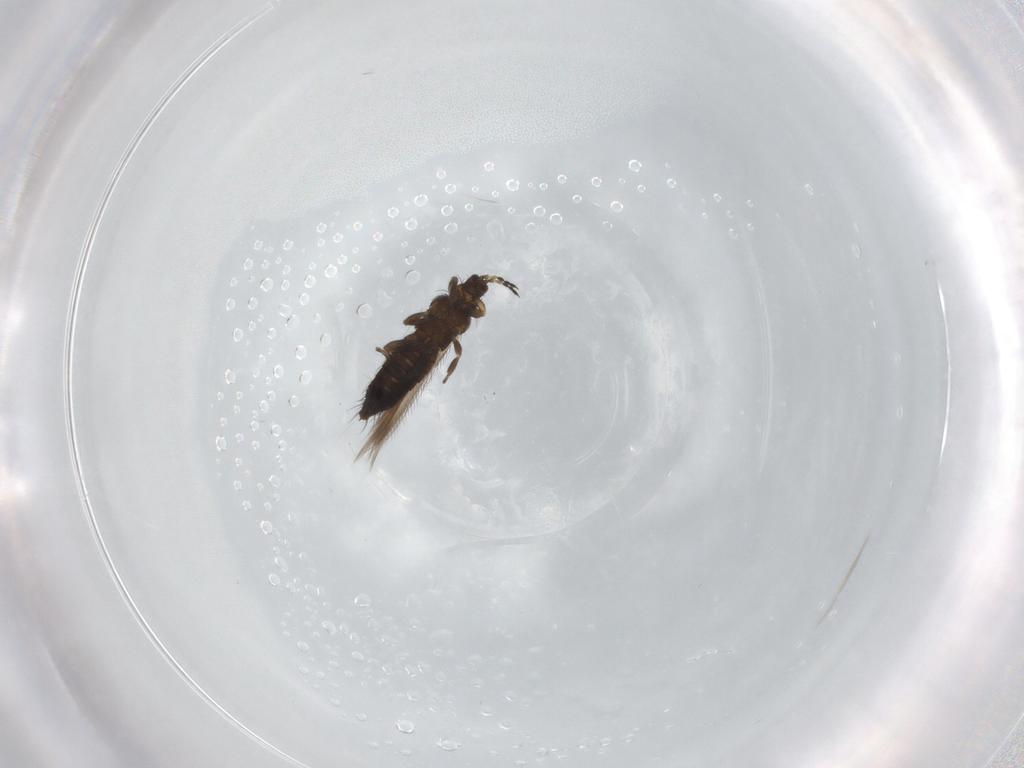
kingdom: Animalia
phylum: Arthropoda
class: Insecta
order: Thysanoptera
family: Thripidae
